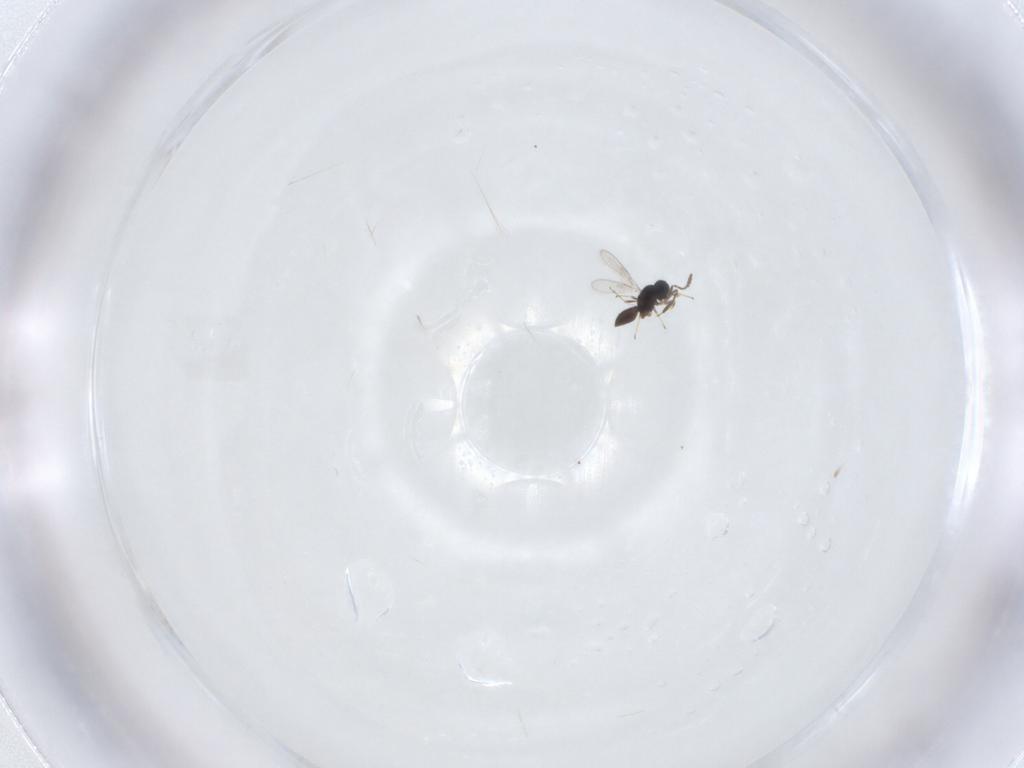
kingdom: Animalia
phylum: Arthropoda
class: Insecta
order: Hymenoptera
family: Scelionidae
